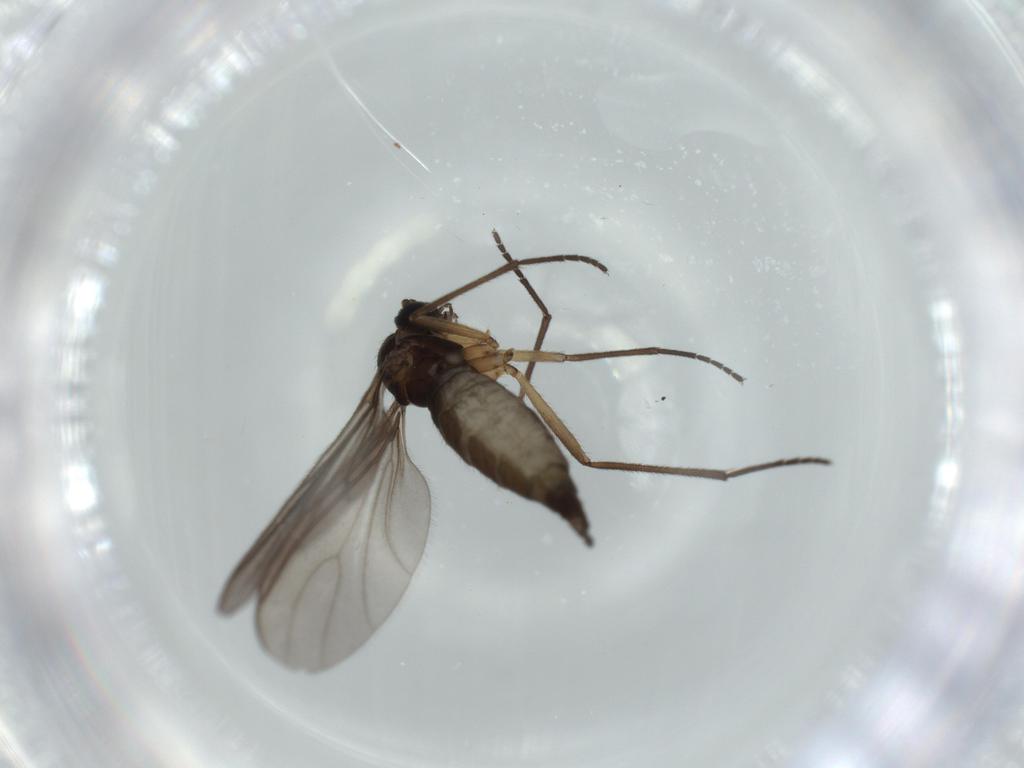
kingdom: Animalia
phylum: Arthropoda
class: Insecta
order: Diptera
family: Sciaridae
